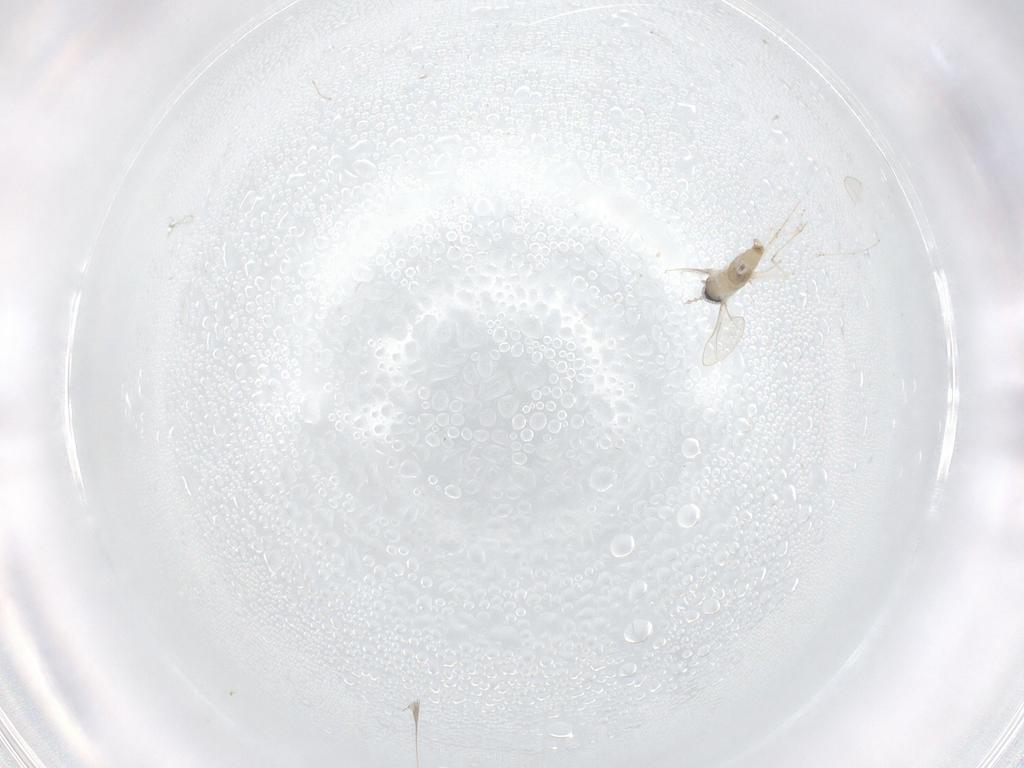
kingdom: Animalia
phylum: Arthropoda
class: Insecta
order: Diptera
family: Cecidomyiidae
